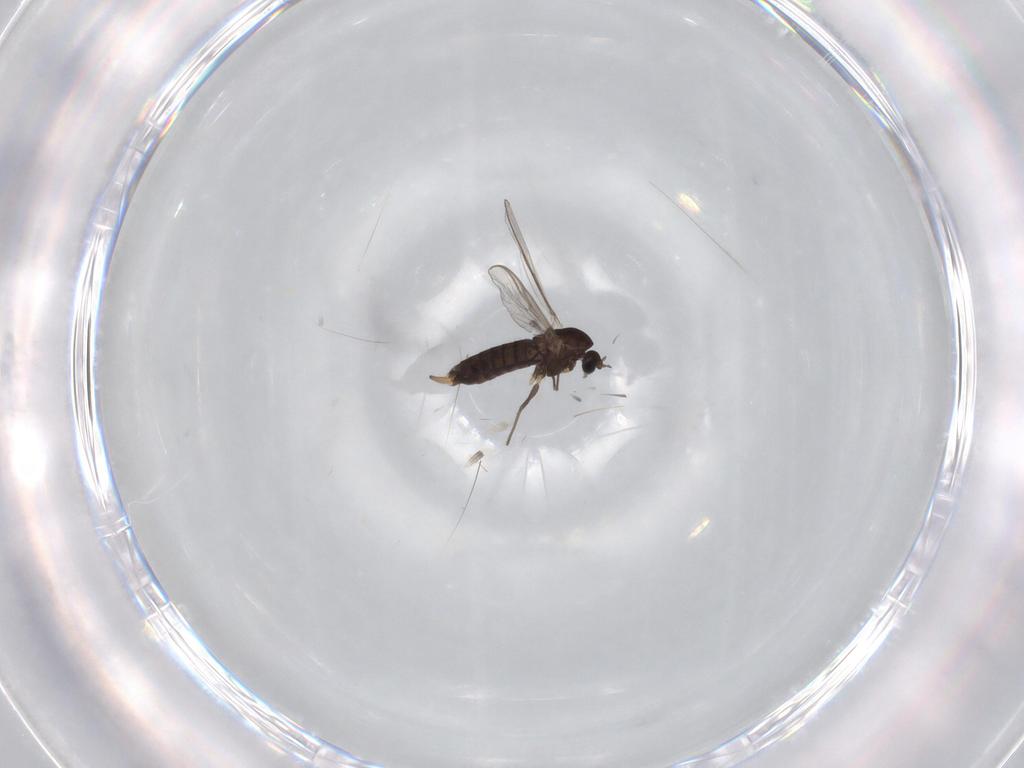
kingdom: Animalia
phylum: Arthropoda
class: Insecta
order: Diptera
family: Chironomidae
